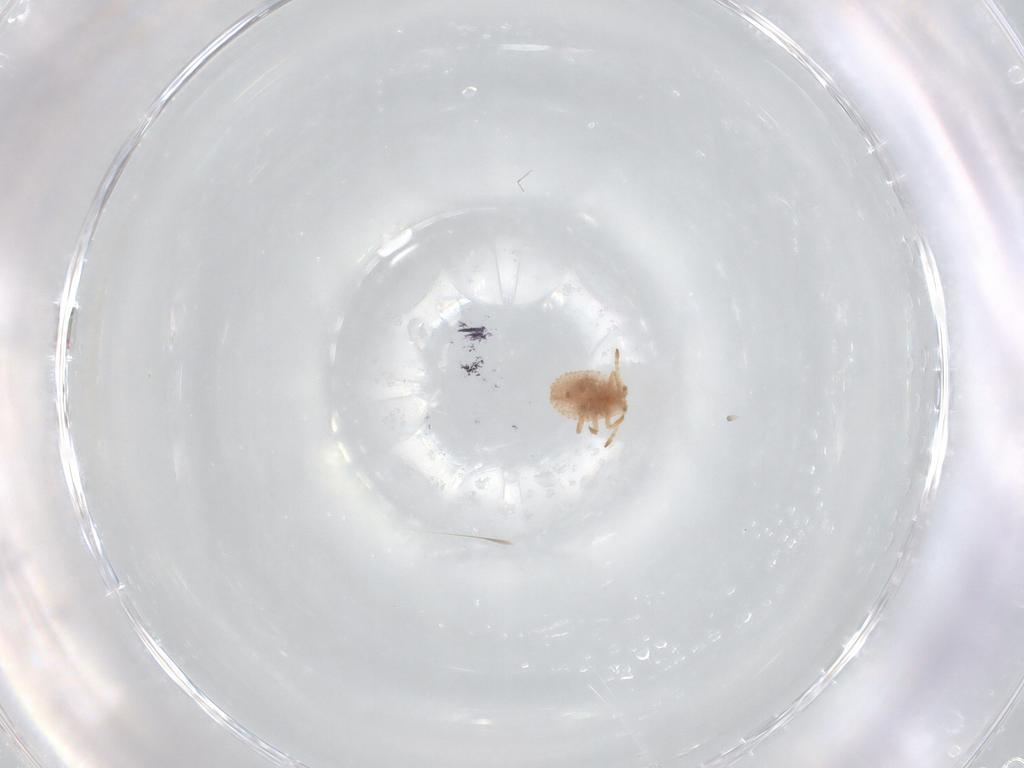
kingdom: Animalia
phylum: Arthropoda
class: Insecta
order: Hemiptera
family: Coccoidea_incertae_sedis
